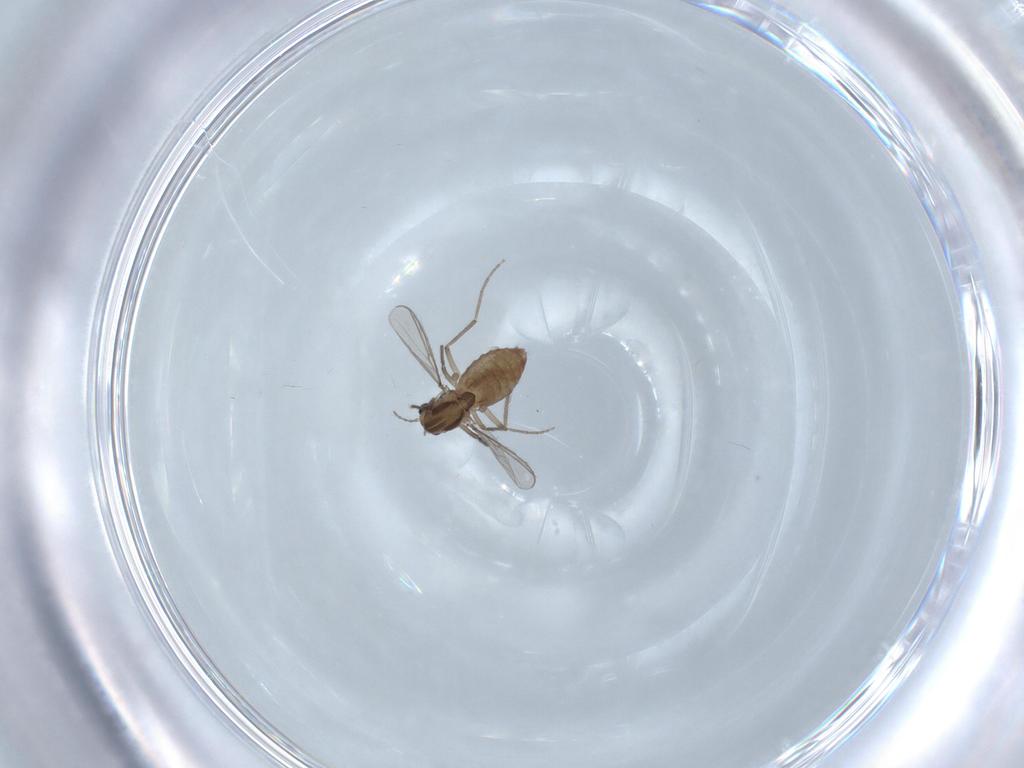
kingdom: Animalia
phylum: Arthropoda
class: Insecta
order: Diptera
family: Chironomidae
